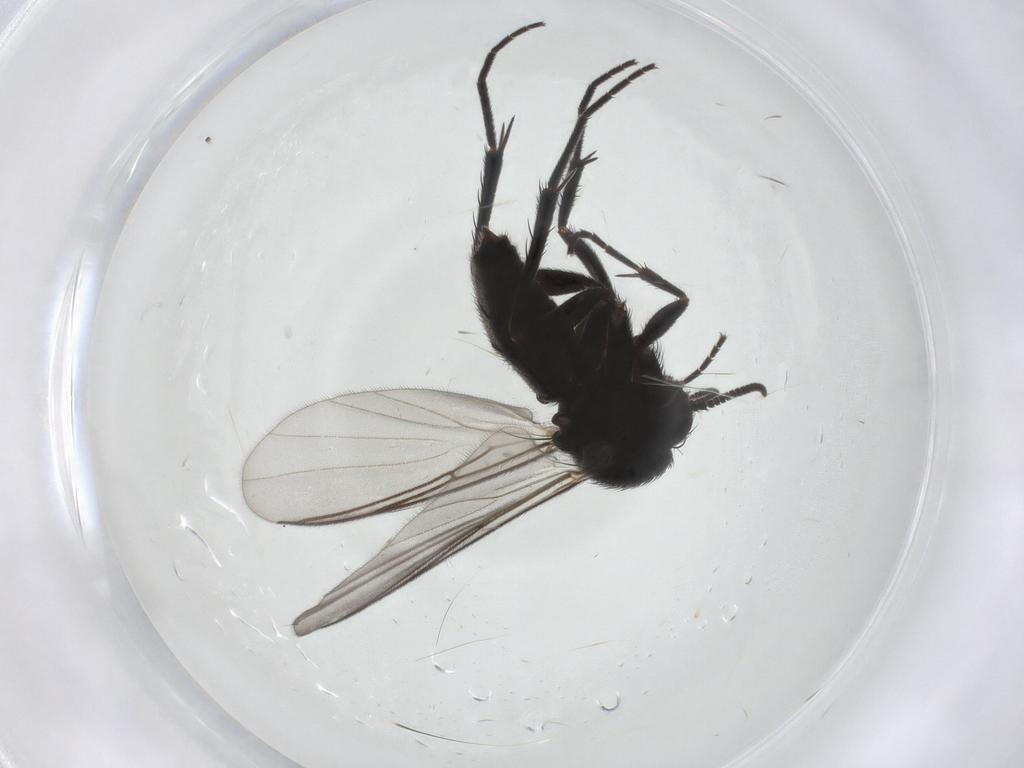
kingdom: Animalia
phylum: Arthropoda
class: Insecta
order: Diptera
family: Mycetophilidae
